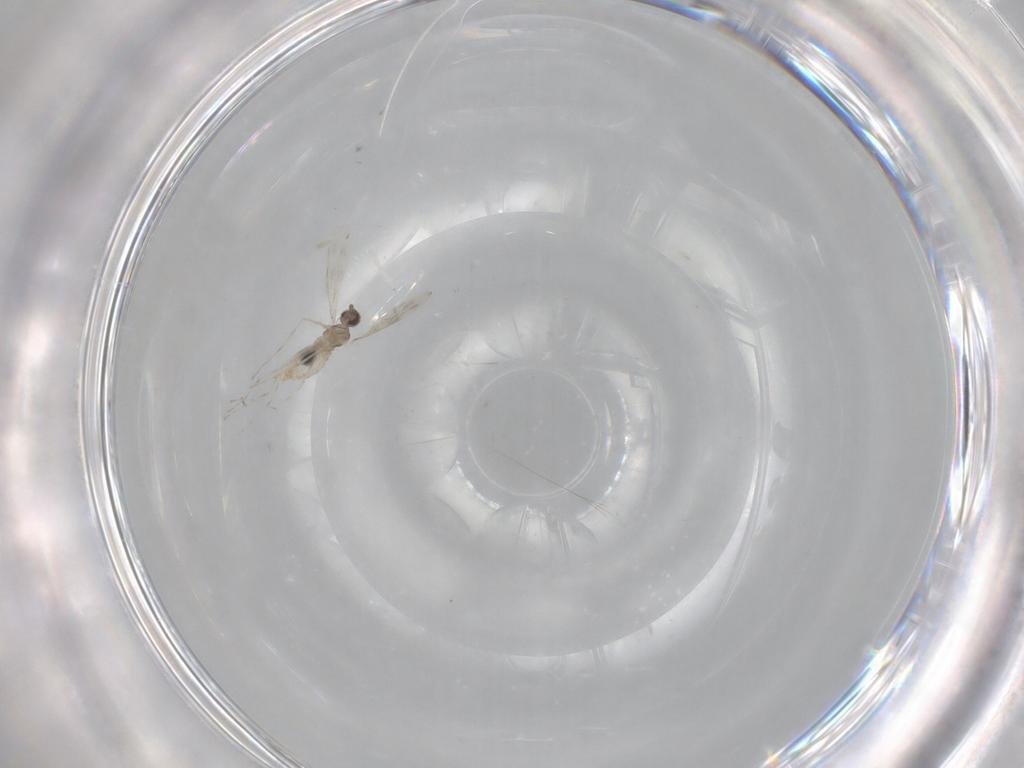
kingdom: Animalia
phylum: Arthropoda
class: Insecta
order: Diptera
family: Cecidomyiidae
